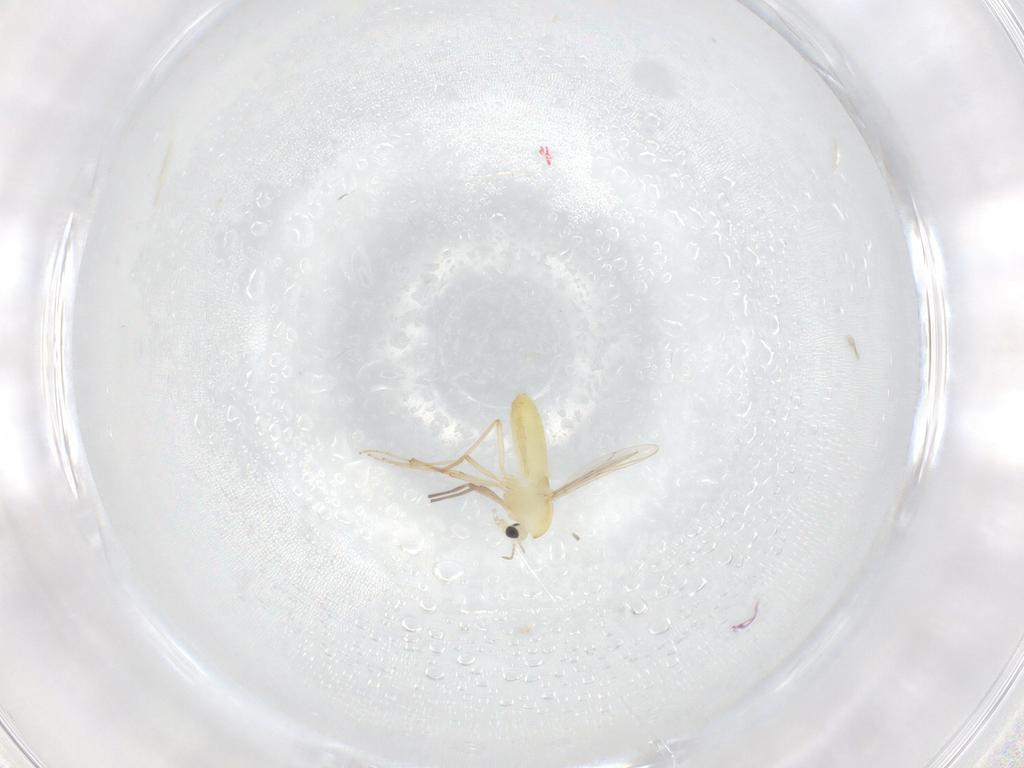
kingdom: Animalia
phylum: Arthropoda
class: Insecta
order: Diptera
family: Chironomidae
